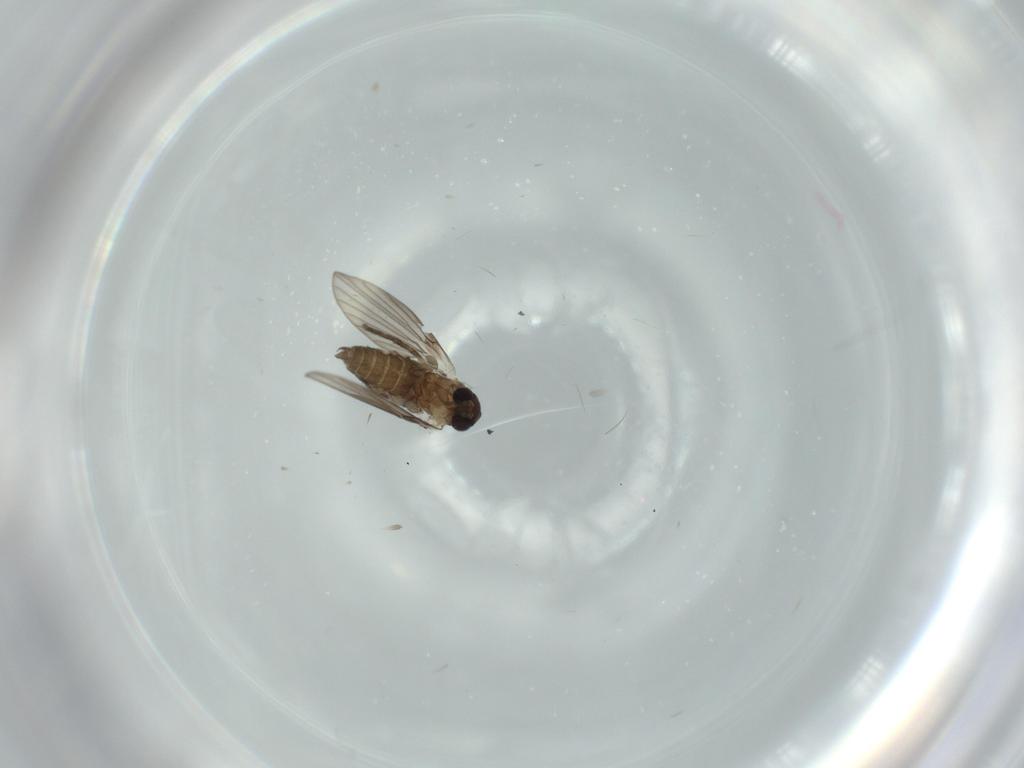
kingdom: Animalia
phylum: Arthropoda
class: Insecta
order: Diptera
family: Psychodidae
